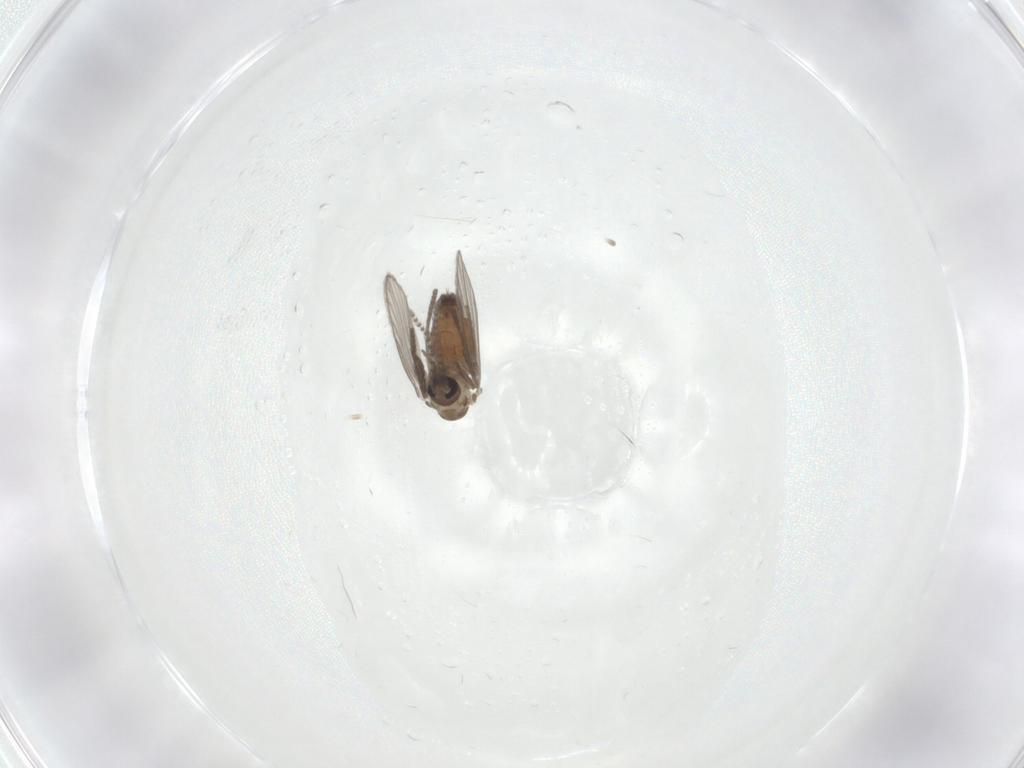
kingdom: Animalia
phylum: Arthropoda
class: Insecta
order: Diptera
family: Psychodidae
